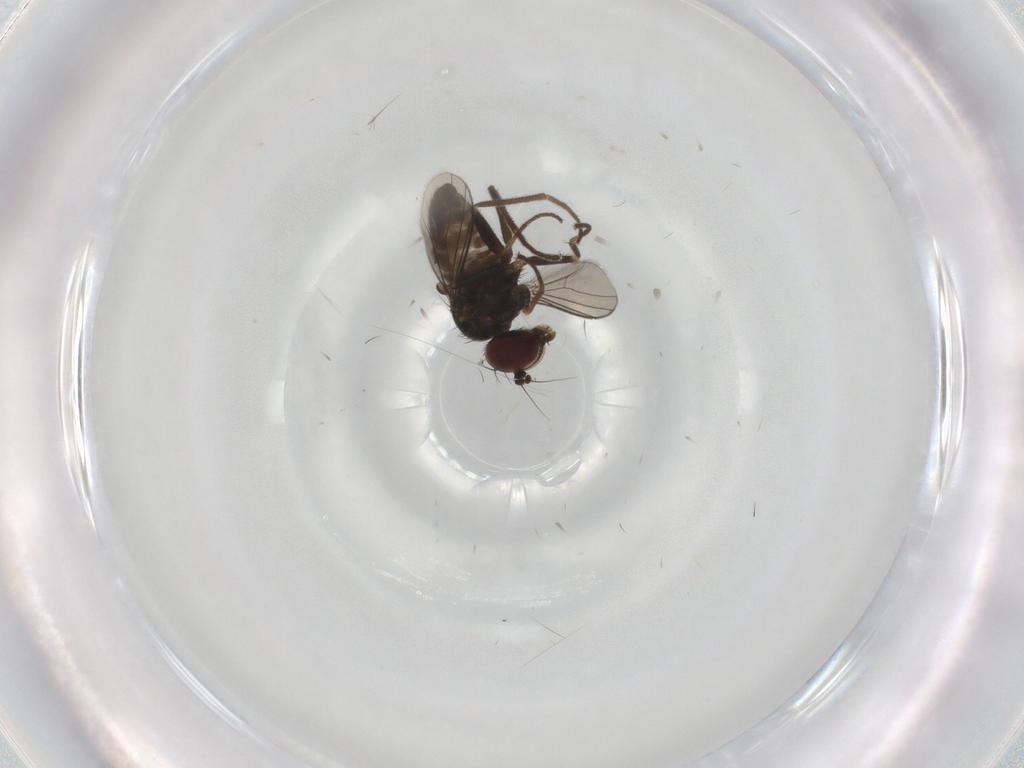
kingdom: Animalia
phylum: Arthropoda
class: Insecta
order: Diptera
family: Dolichopodidae
